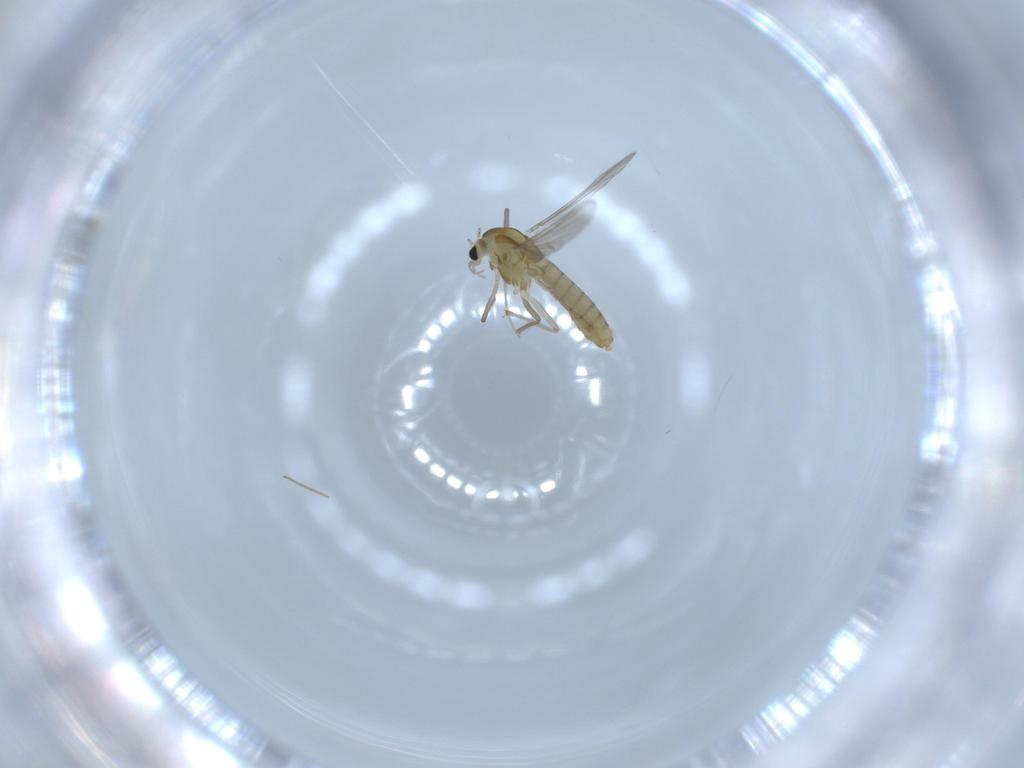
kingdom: Animalia
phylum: Arthropoda
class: Insecta
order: Diptera
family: Chironomidae
